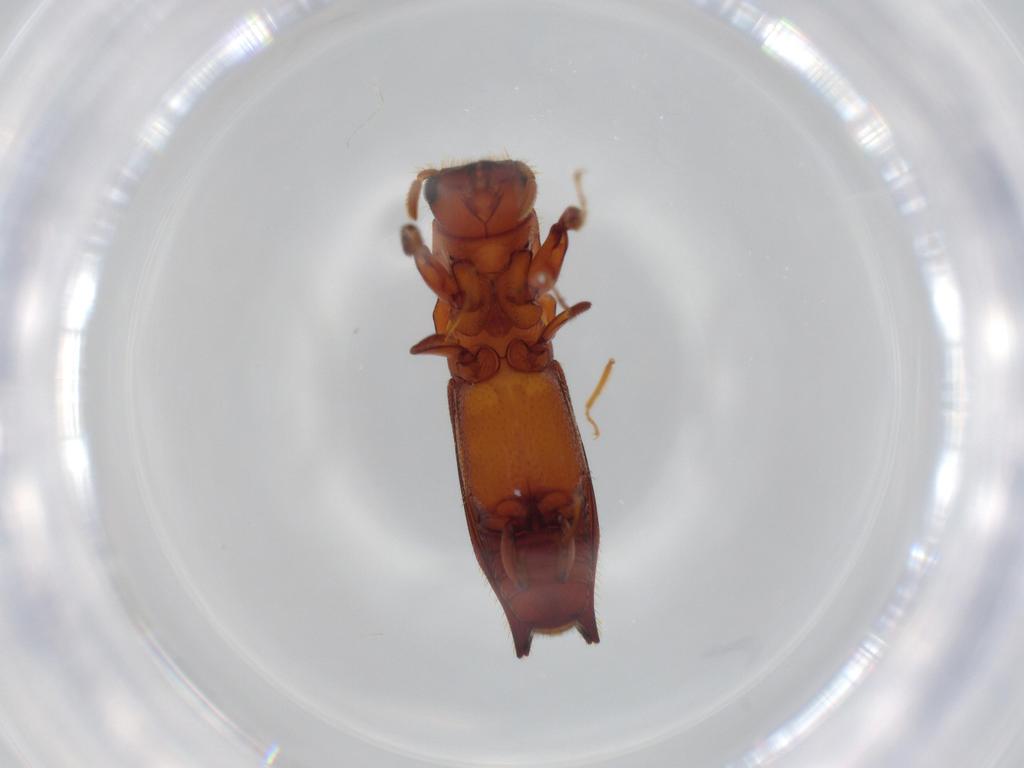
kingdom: Animalia
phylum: Arthropoda
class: Insecta
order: Coleoptera
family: Curculionidae
